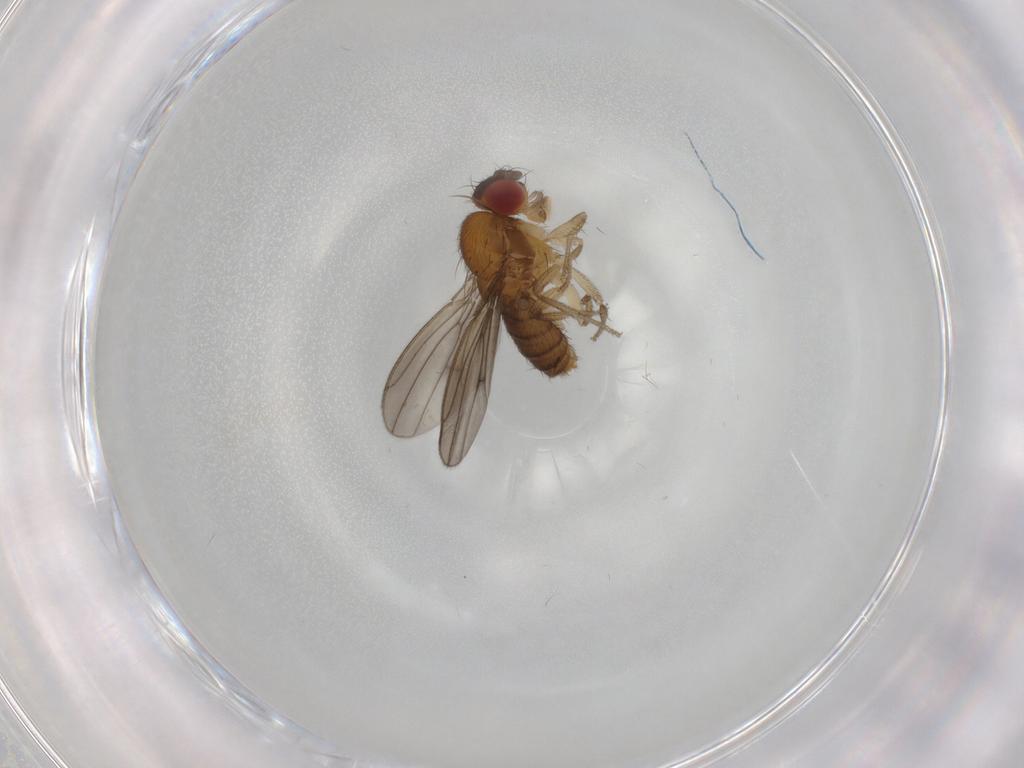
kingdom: Animalia
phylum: Arthropoda
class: Insecta
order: Diptera
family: Drosophilidae
